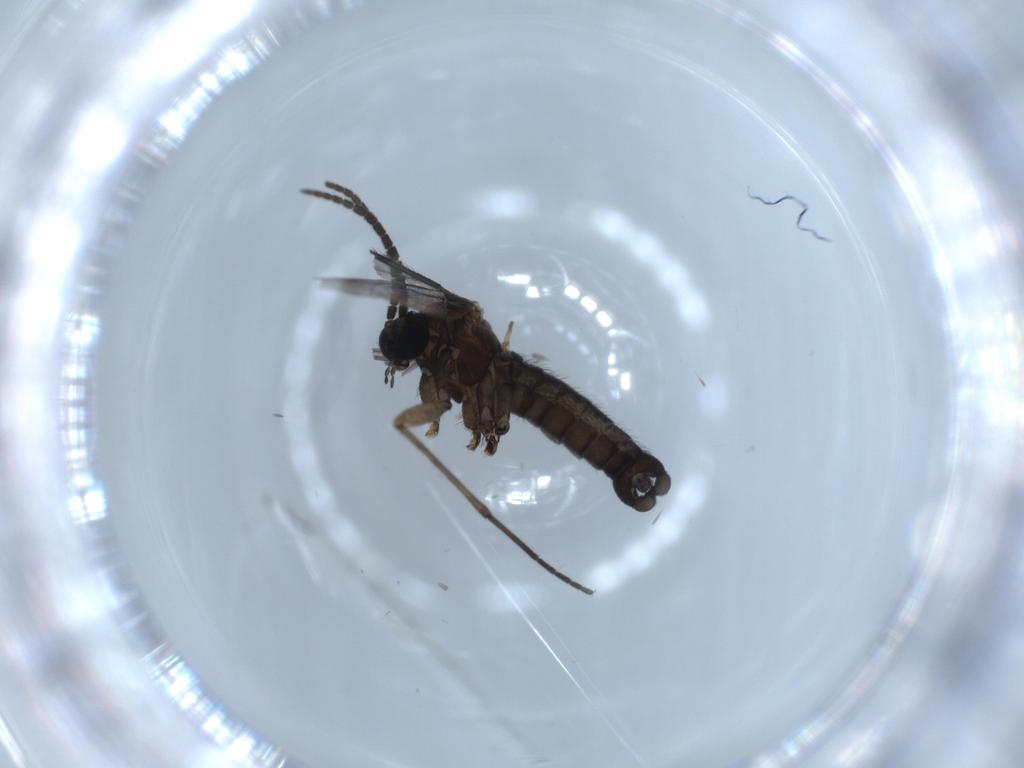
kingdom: Animalia
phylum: Arthropoda
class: Insecta
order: Diptera
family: Sciaridae
